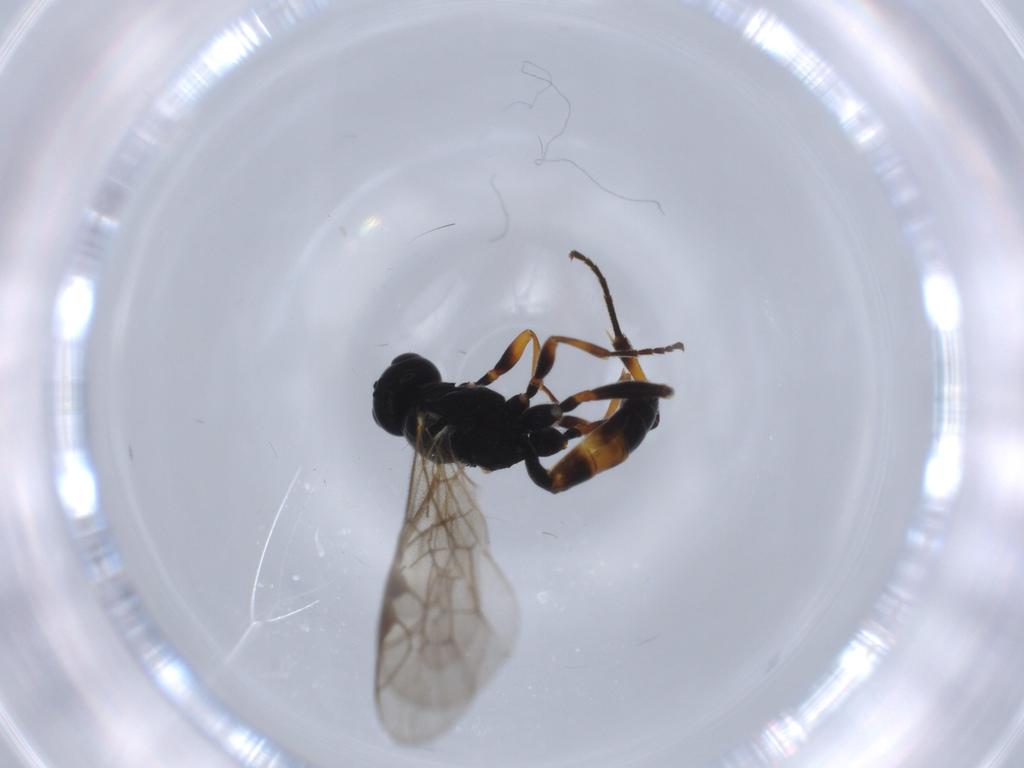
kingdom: Animalia
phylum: Arthropoda
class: Insecta
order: Hymenoptera
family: Ichneumonidae
